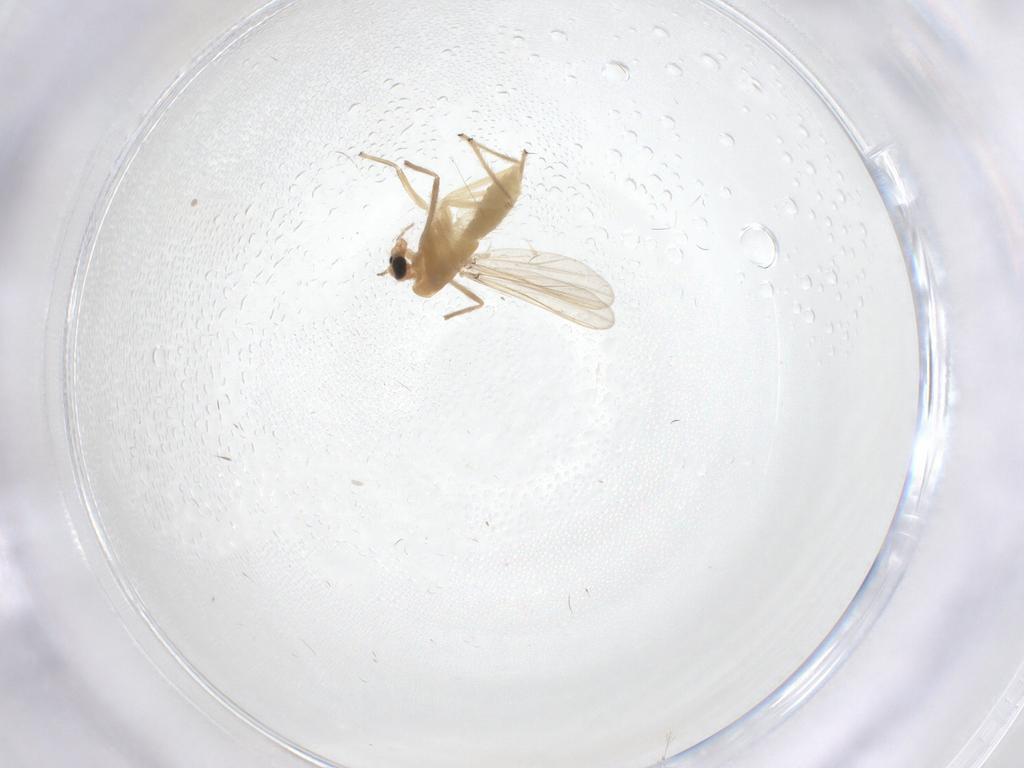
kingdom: Animalia
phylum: Arthropoda
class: Insecta
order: Diptera
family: Chironomidae
